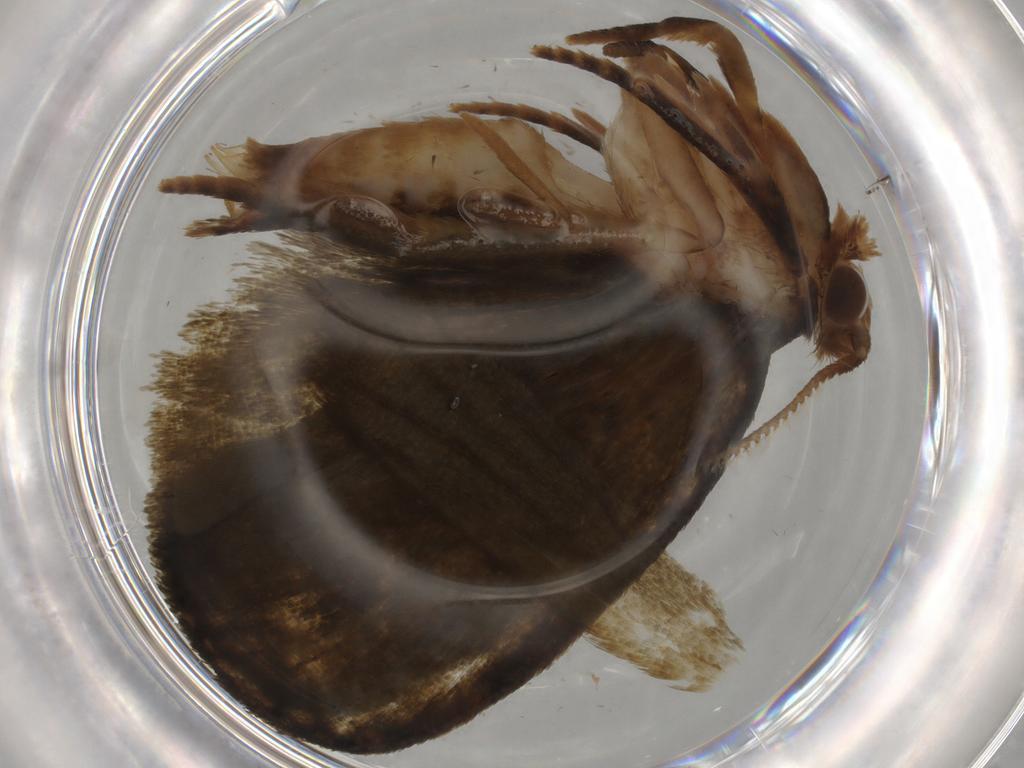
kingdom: Animalia
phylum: Arthropoda
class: Insecta
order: Lepidoptera
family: Geometridae
